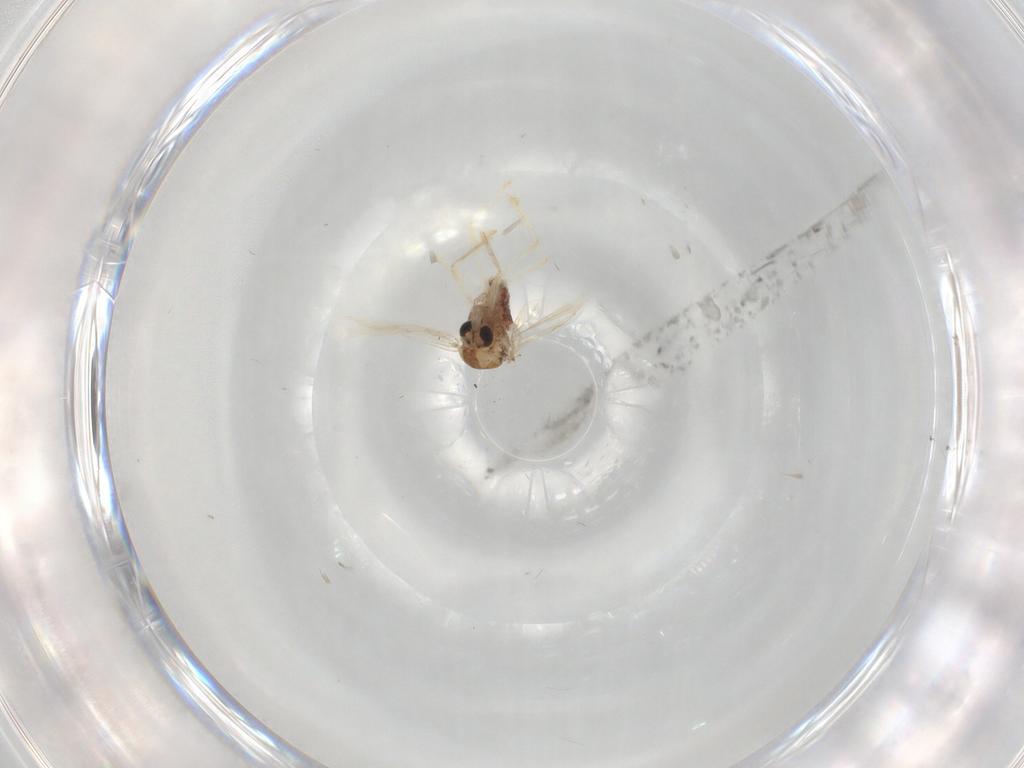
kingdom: Animalia
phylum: Arthropoda
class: Insecta
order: Diptera
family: Chironomidae
